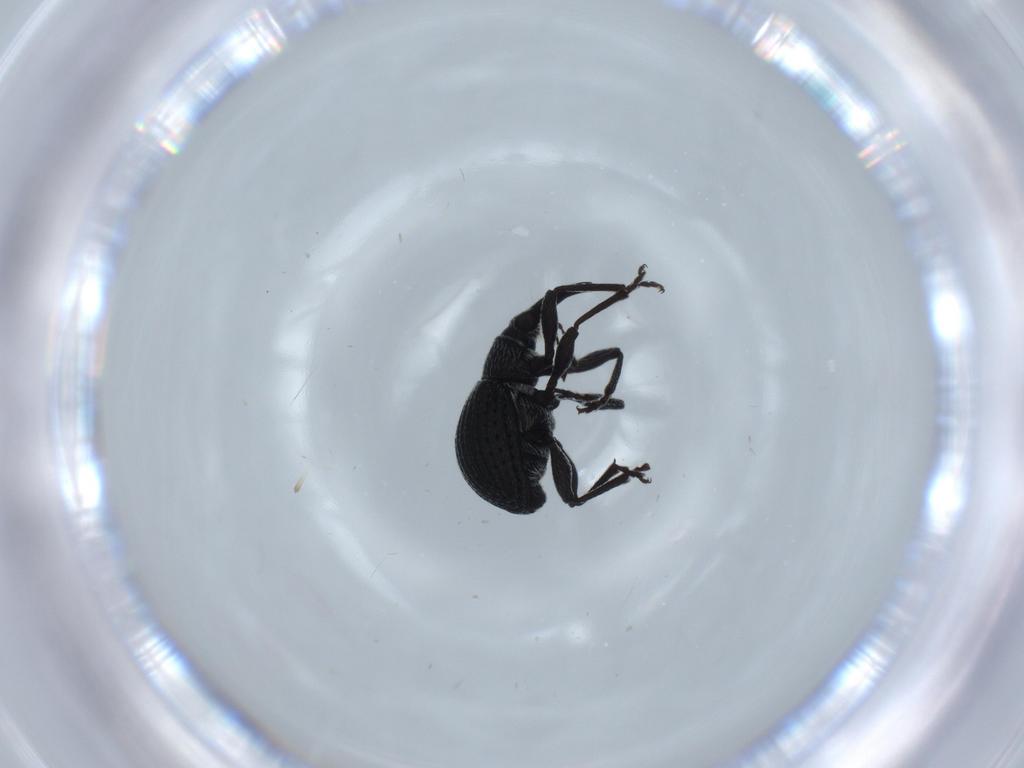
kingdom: Animalia
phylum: Arthropoda
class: Insecta
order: Coleoptera
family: Brentidae
